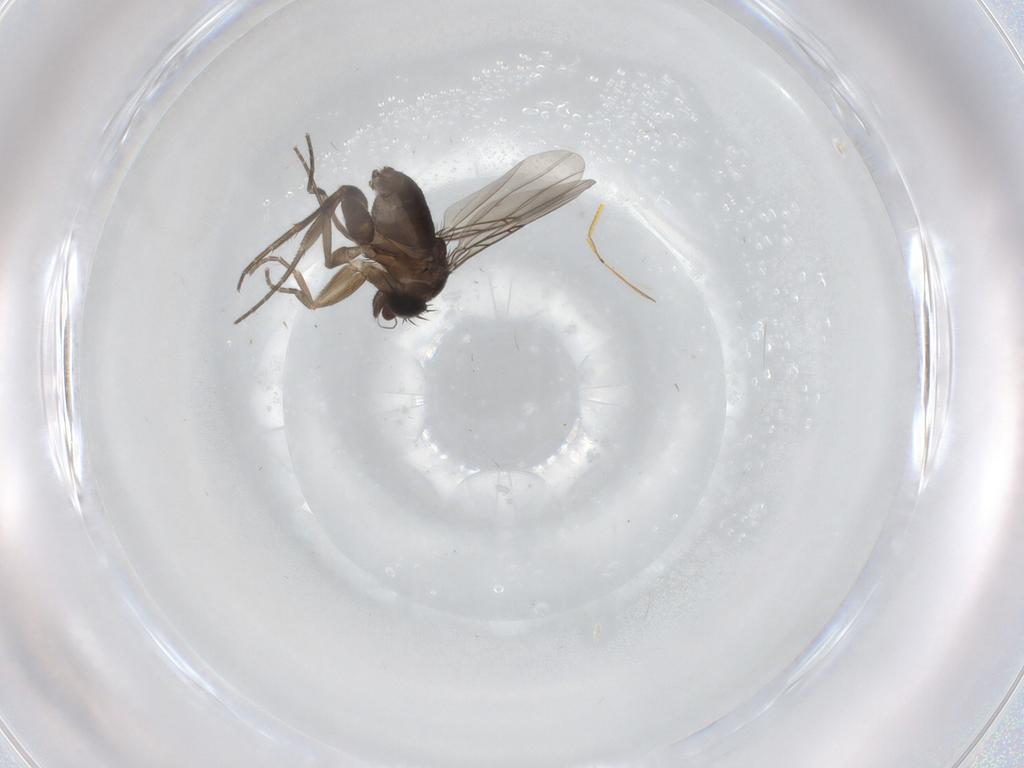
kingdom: Animalia
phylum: Arthropoda
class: Insecta
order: Diptera
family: Phoridae
